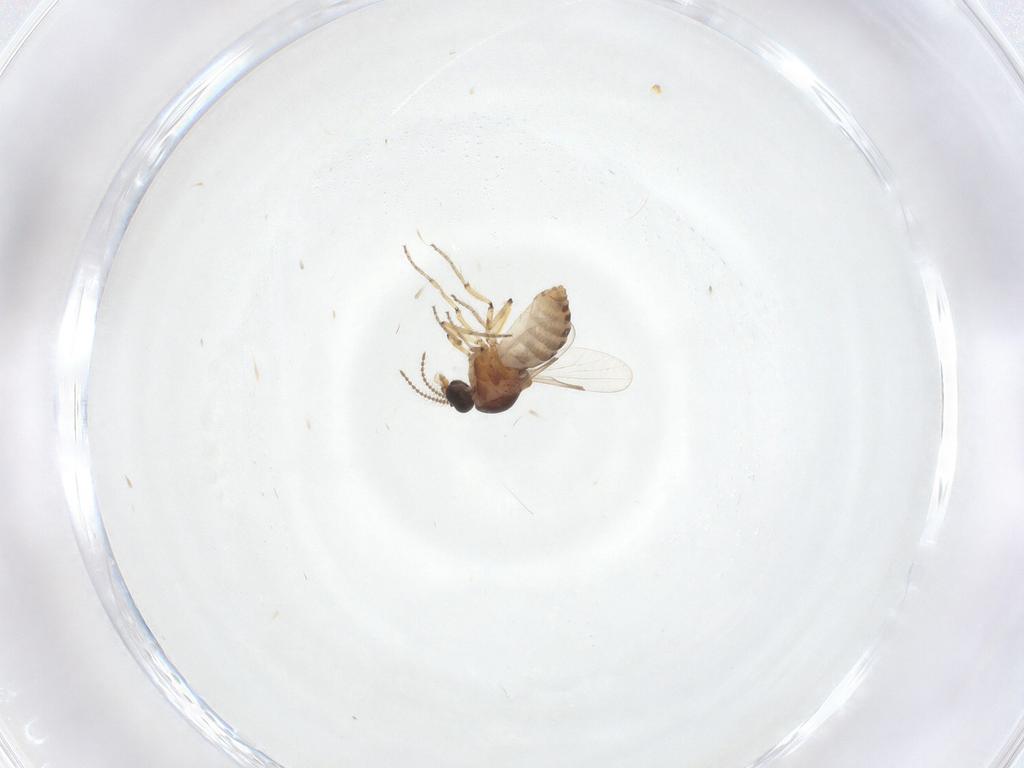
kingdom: Animalia
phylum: Arthropoda
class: Insecta
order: Diptera
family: Ceratopogonidae
